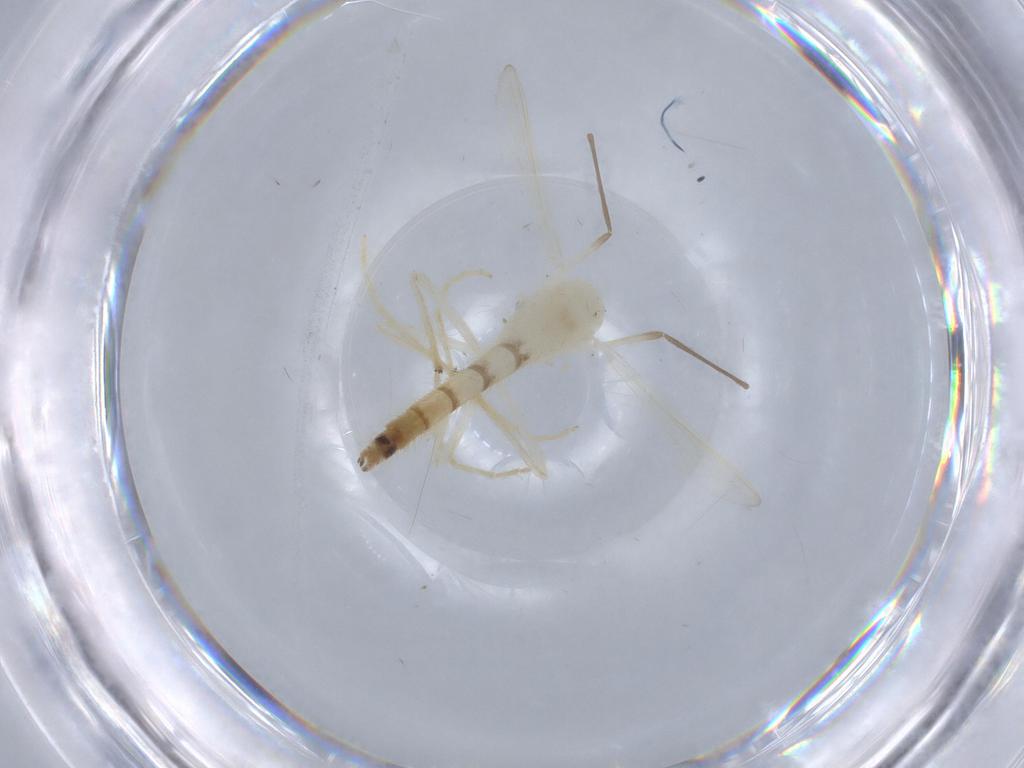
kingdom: Animalia
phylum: Arthropoda
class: Insecta
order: Diptera
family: Chironomidae
